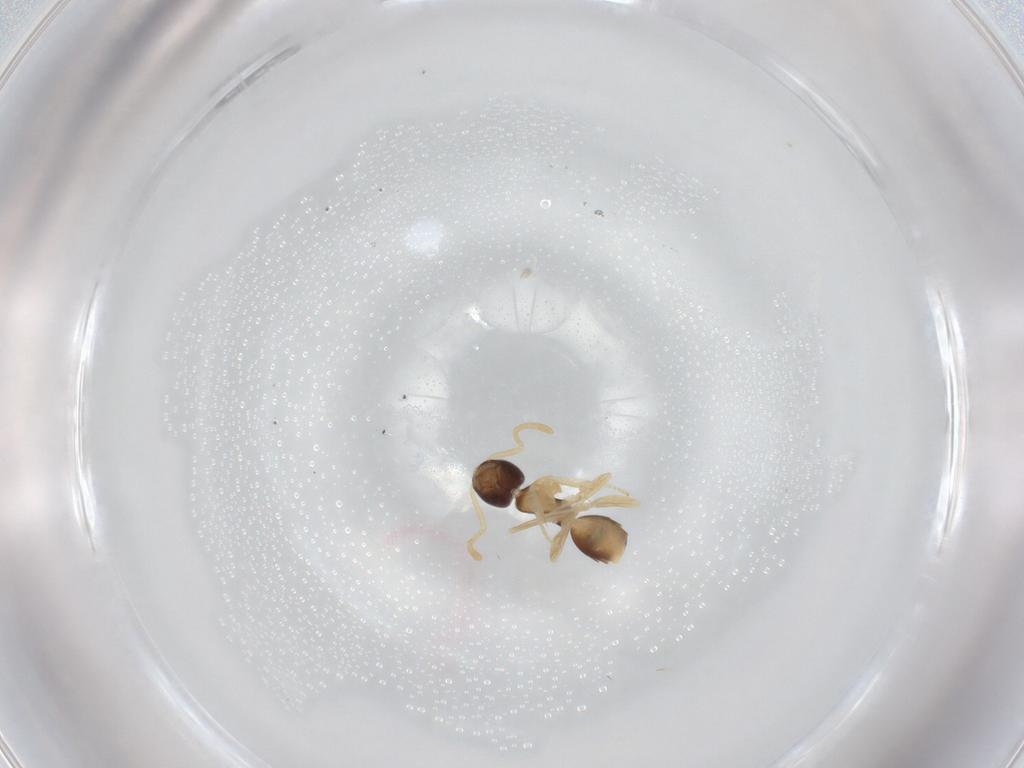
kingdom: Animalia
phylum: Arthropoda
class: Insecta
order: Hymenoptera
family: Formicidae
